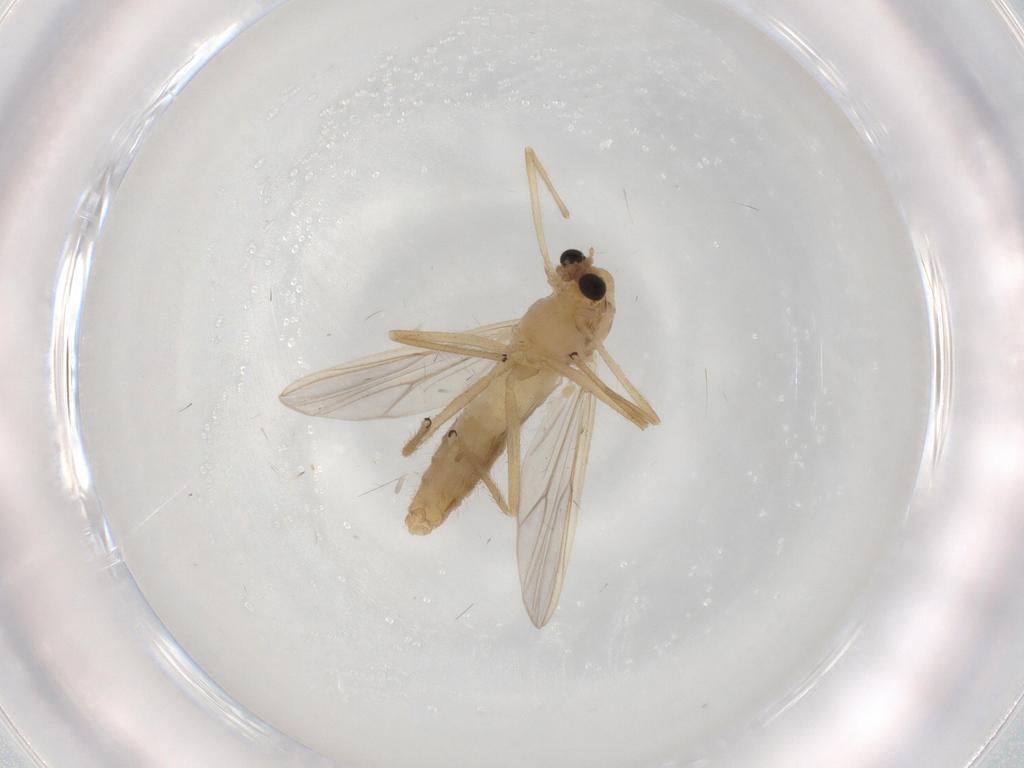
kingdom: Animalia
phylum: Arthropoda
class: Insecta
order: Diptera
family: Chironomidae
